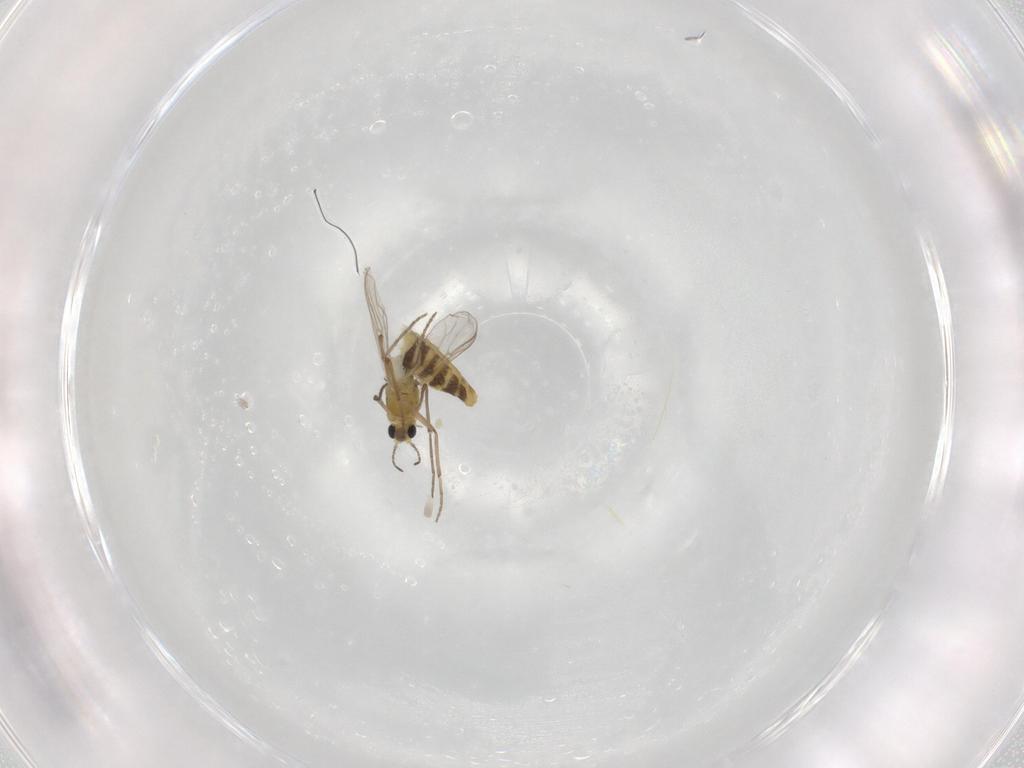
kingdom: Animalia
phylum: Arthropoda
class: Insecta
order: Diptera
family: Chironomidae
